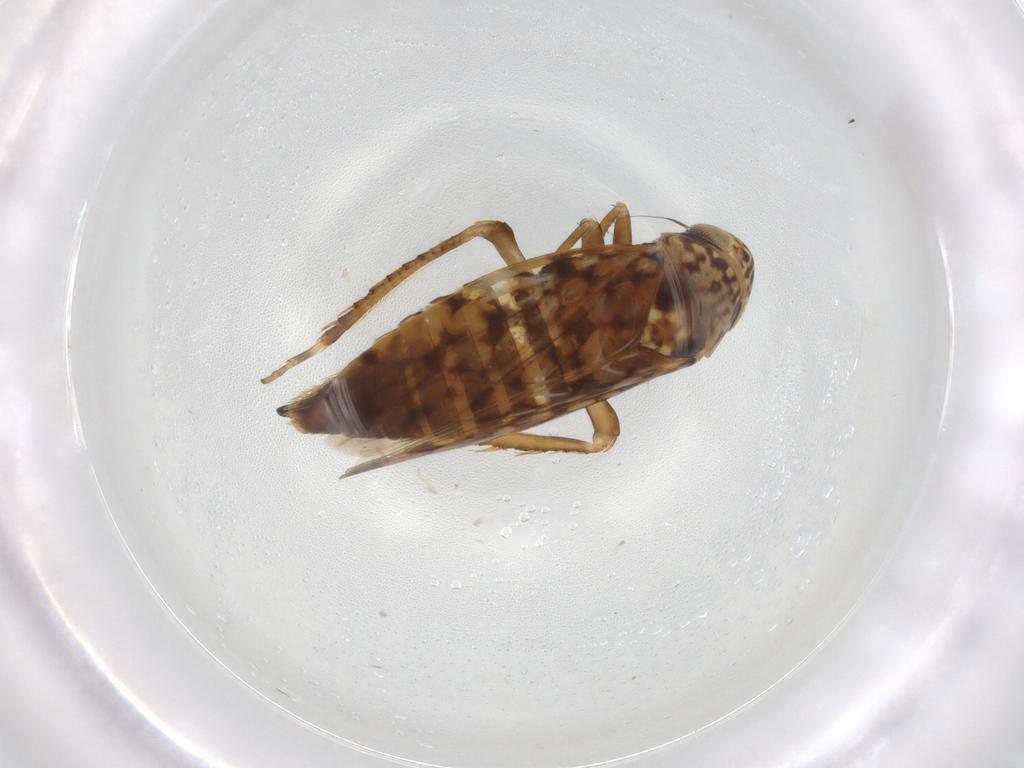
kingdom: Animalia
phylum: Arthropoda
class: Insecta
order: Hemiptera
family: Cicadellidae
